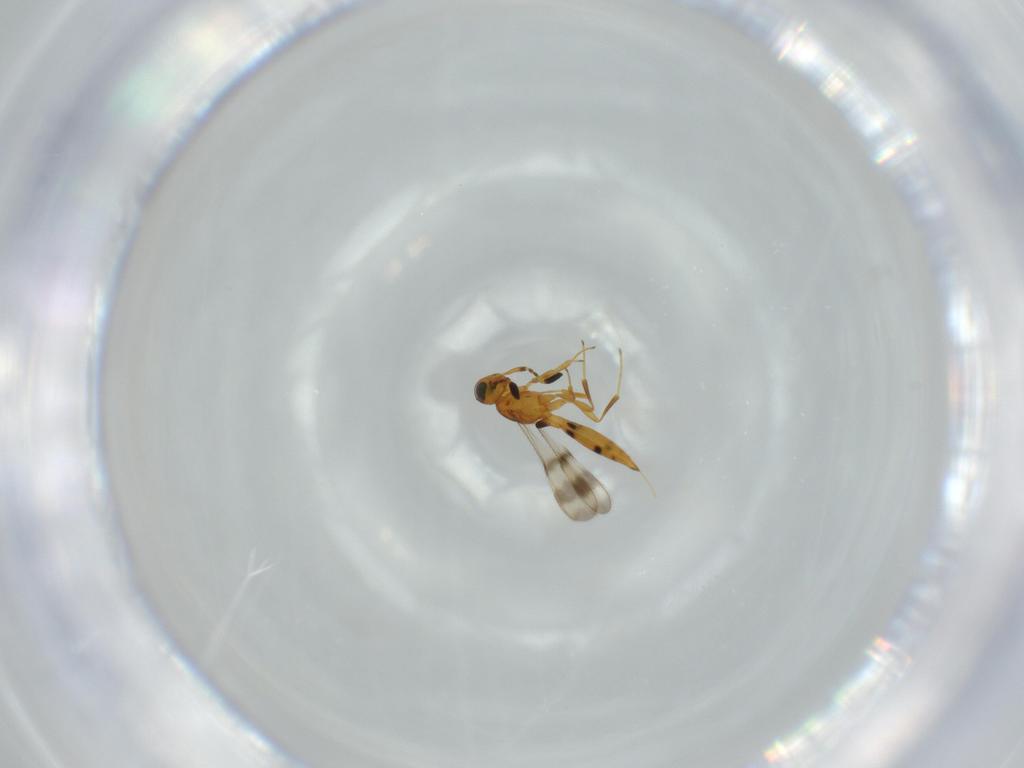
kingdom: Animalia
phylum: Arthropoda
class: Insecta
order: Hymenoptera
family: Scelionidae
